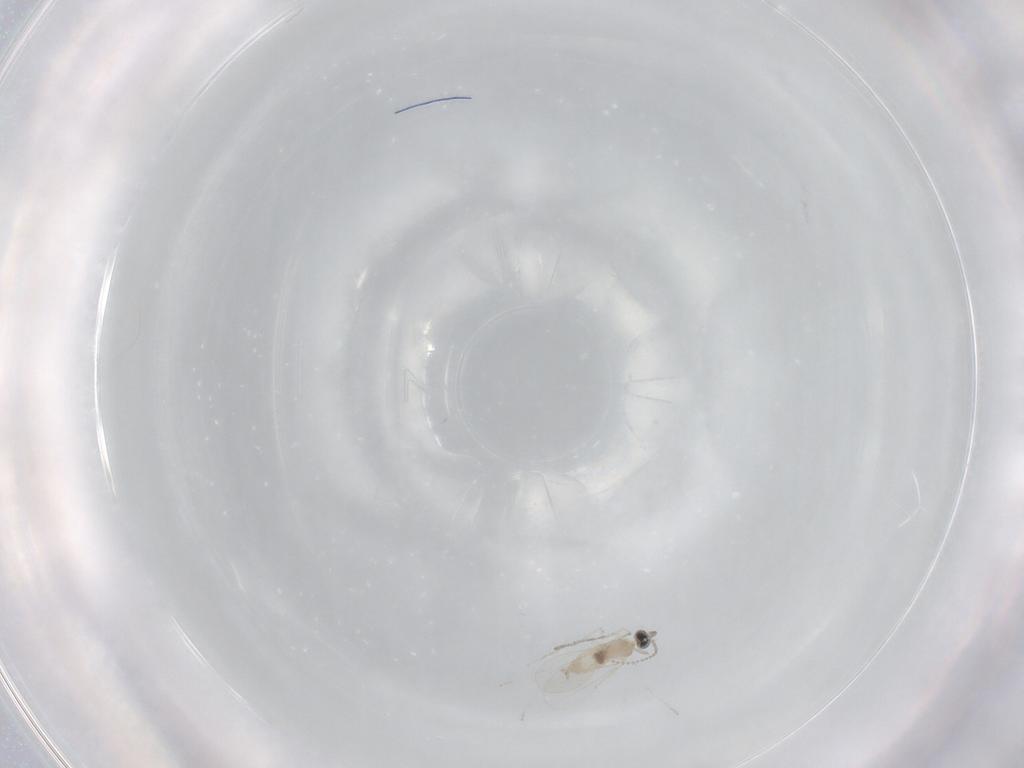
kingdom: Animalia
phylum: Arthropoda
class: Insecta
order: Diptera
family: Cecidomyiidae
